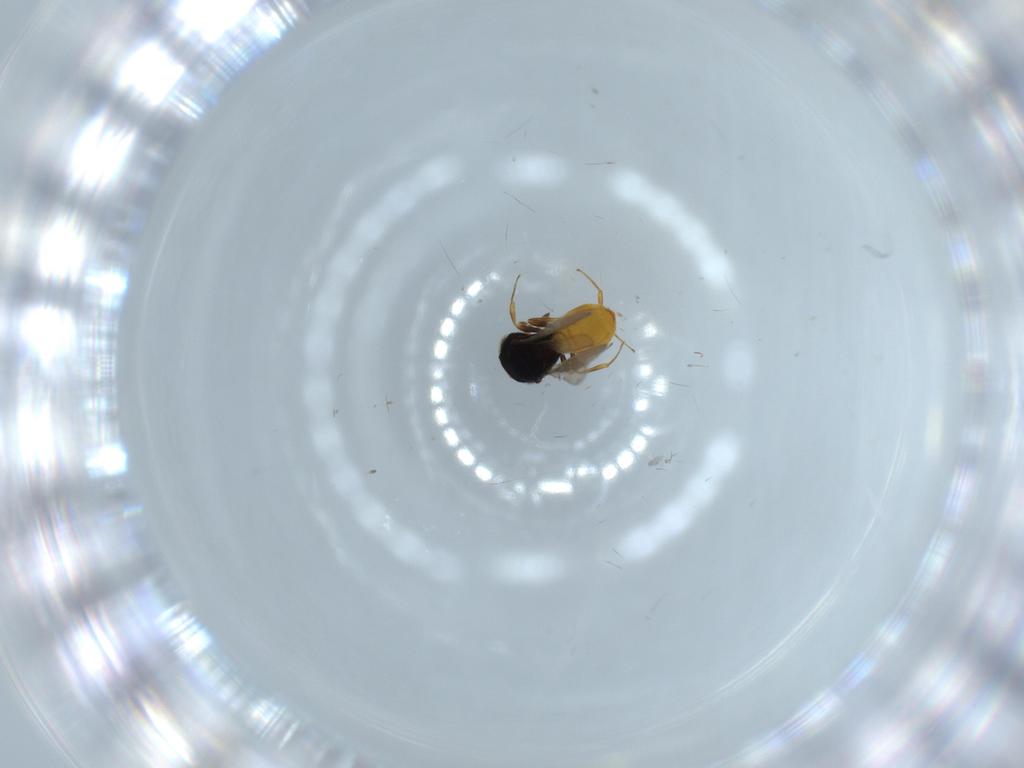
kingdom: Animalia
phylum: Arthropoda
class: Insecta
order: Hymenoptera
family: Scelionidae
